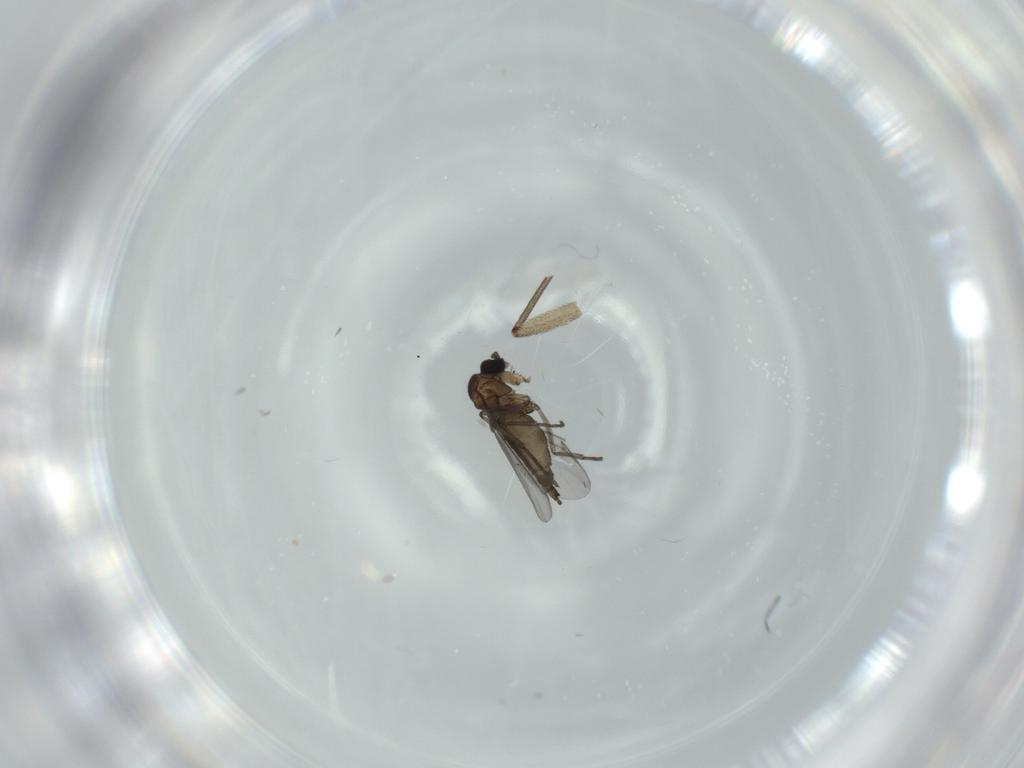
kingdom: Animalia
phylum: Arthropoda
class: Insecta
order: Diptera
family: Sciaridae
